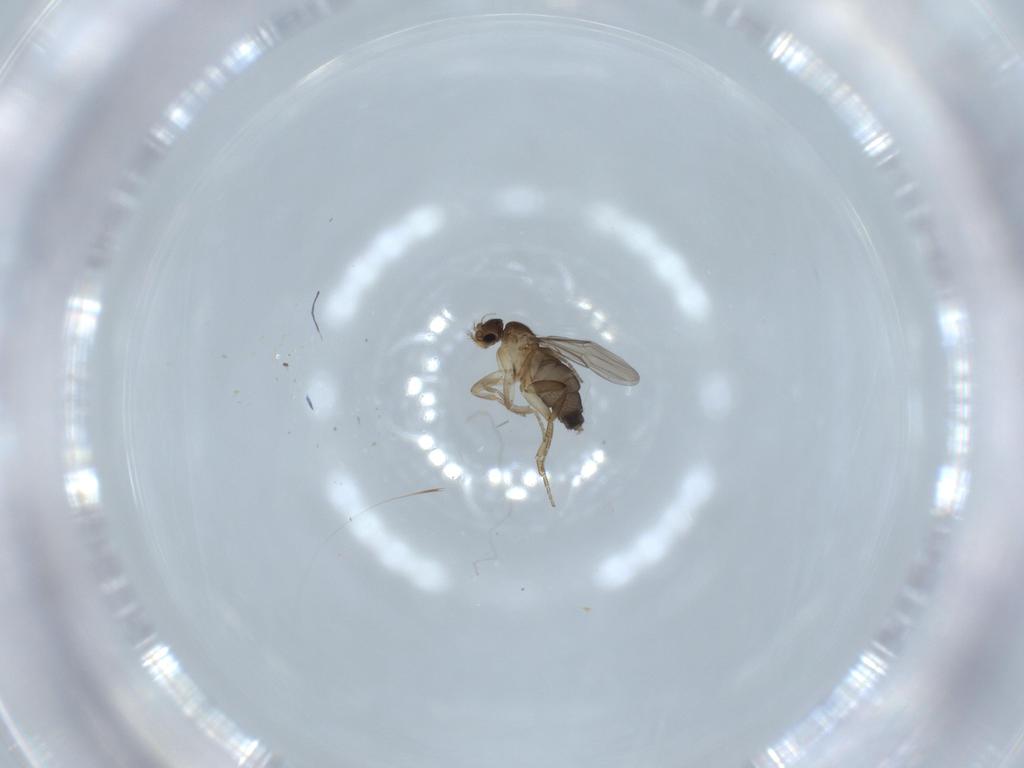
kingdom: Animalia
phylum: Arthropoda
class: Insecta
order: Diptera
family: Phoridae
